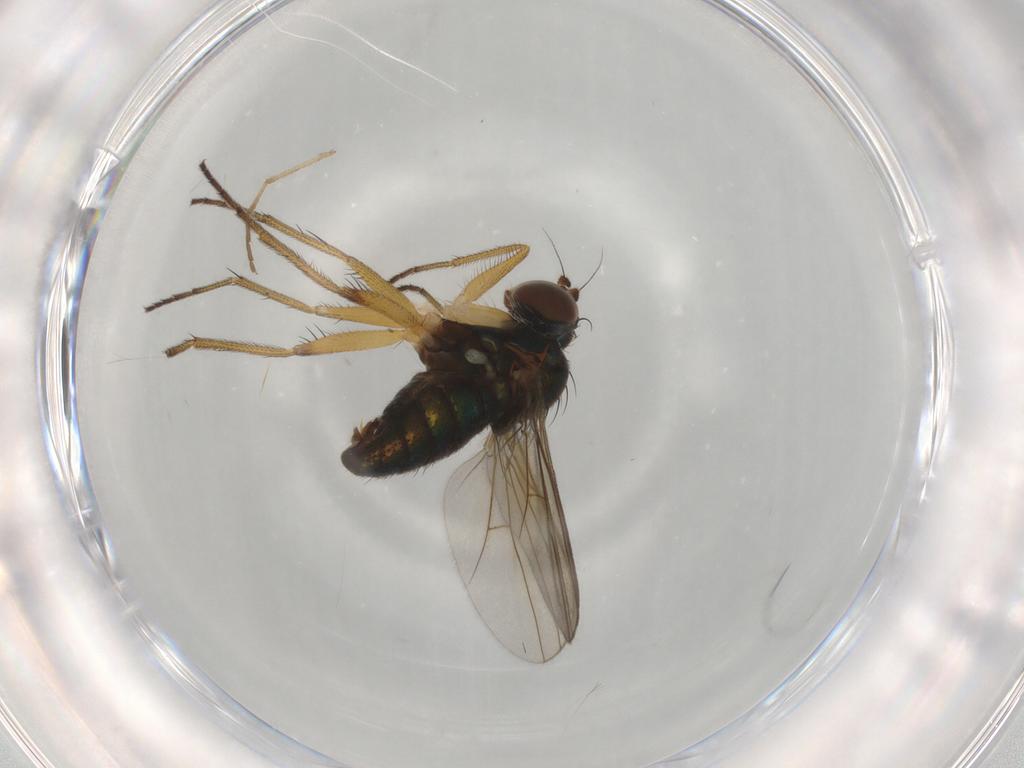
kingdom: Animalia
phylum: Arthropoda
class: Insecta
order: Diptera
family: Dolichopodidae
